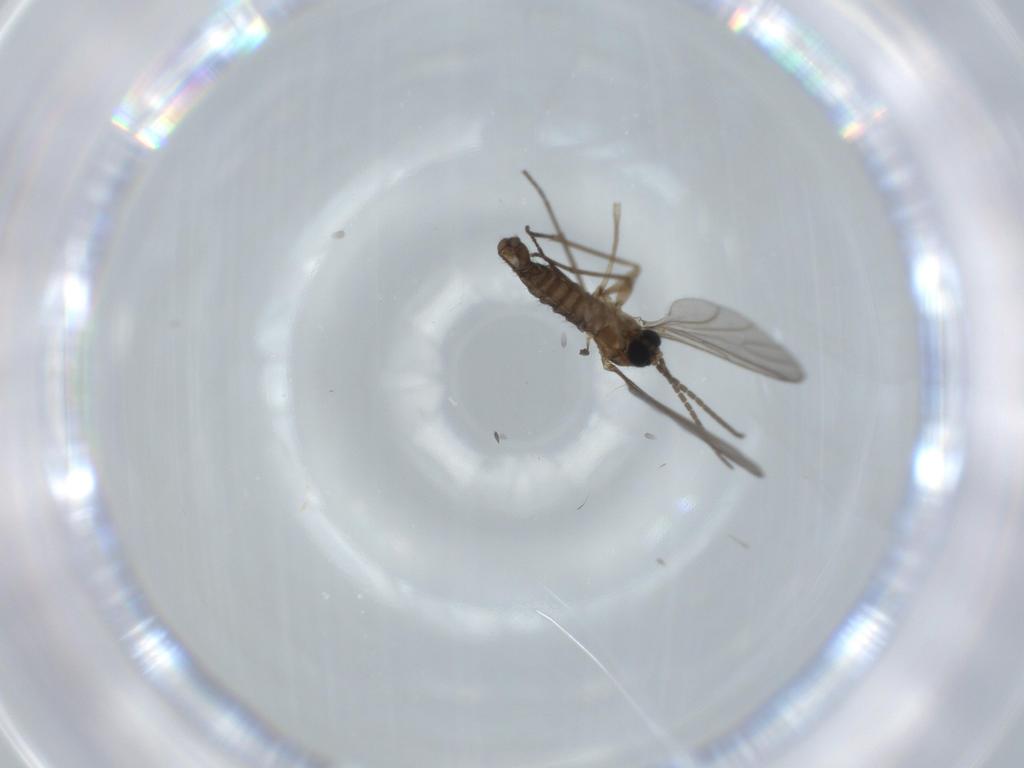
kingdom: Animalia
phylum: Arthropoda
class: Insecta
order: Diptera
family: Sciaridae
